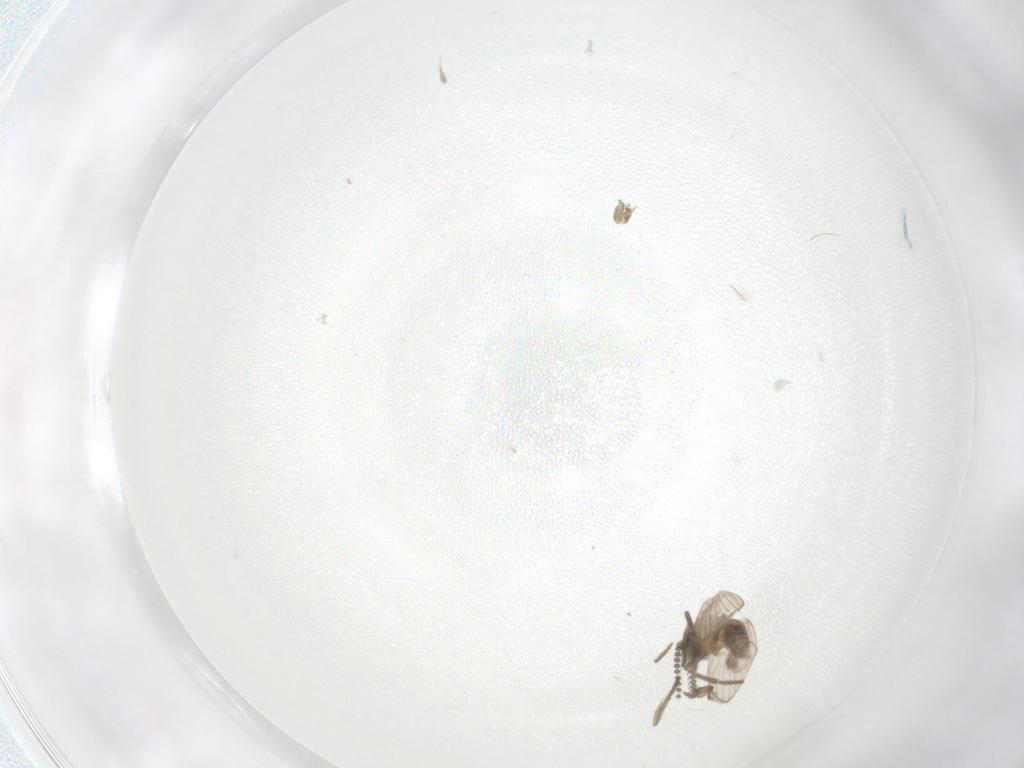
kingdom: Animalia
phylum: Arthropoda
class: Insecta
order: Diptera
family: Psychodidae
